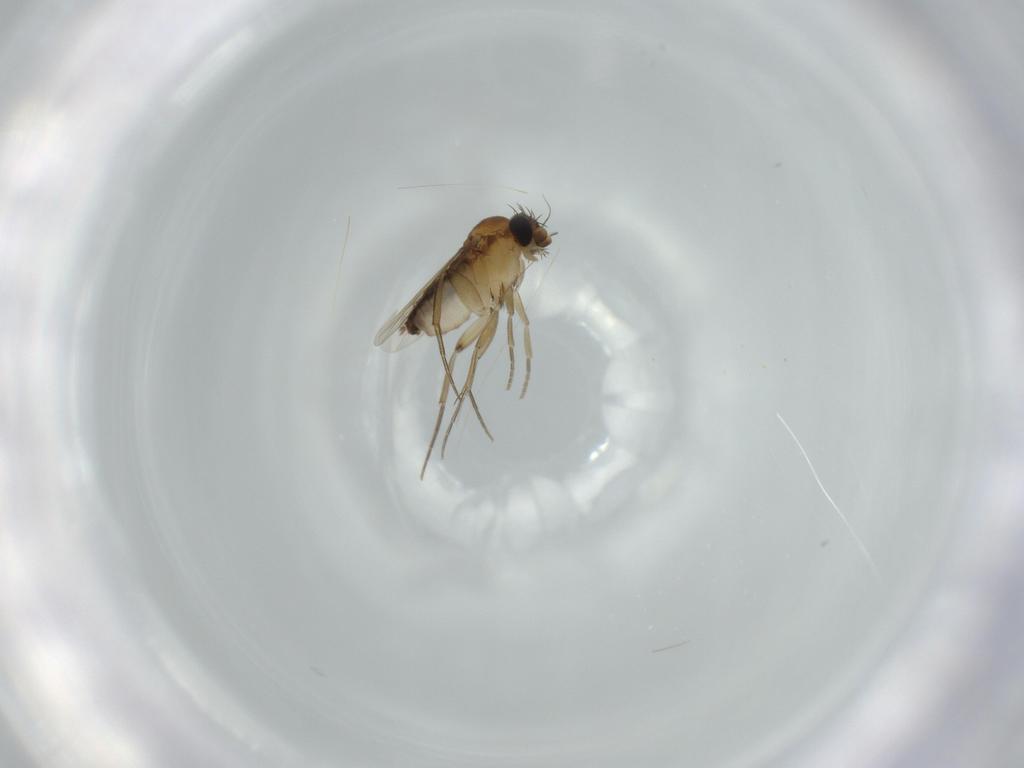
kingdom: Animalia
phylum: Arthropoda
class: Insecta
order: Diptera
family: Phoridae
